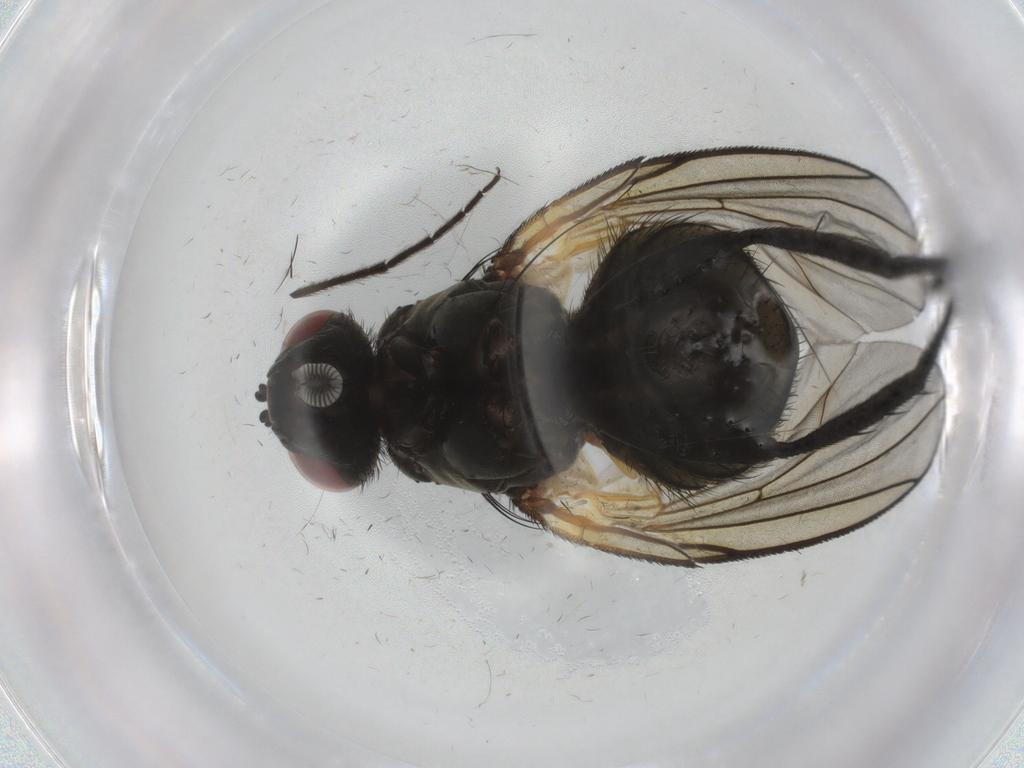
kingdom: Animalia
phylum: Arthropoda
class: Insecta
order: Diptera
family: Muscidae
